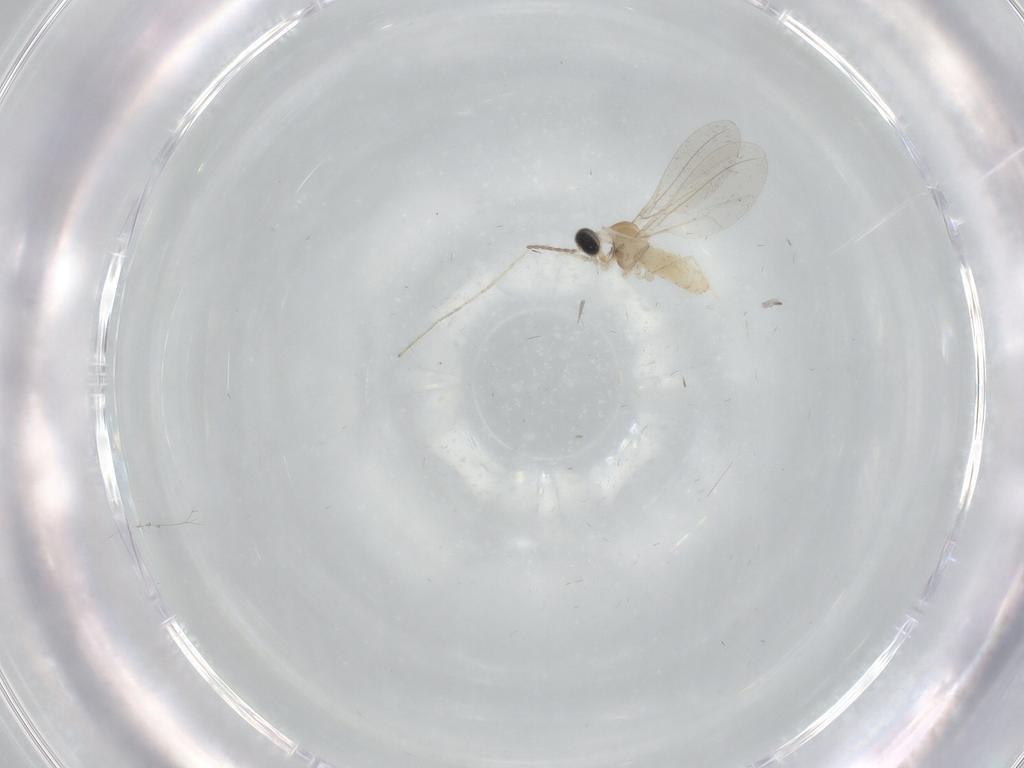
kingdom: Animalia
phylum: Arthropoda
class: Insecta
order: Diptera
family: Cecidomyiidae
